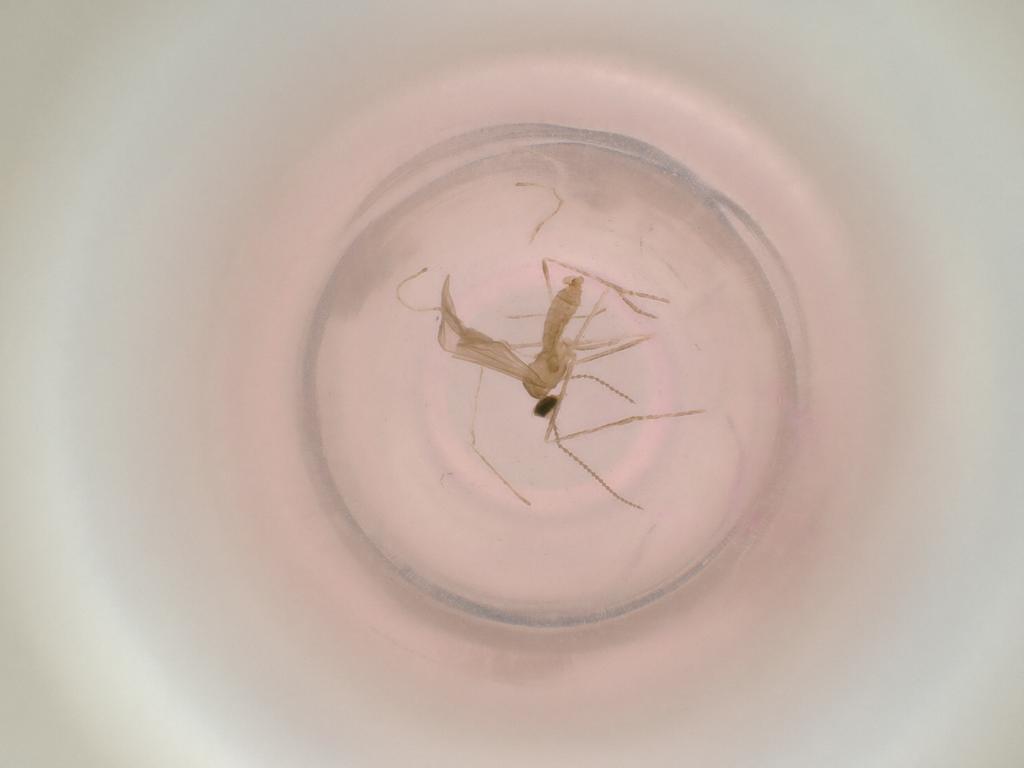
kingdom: Animalia
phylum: Arthropoda
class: Insecta
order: Diptera
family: Cecidomyiidae
